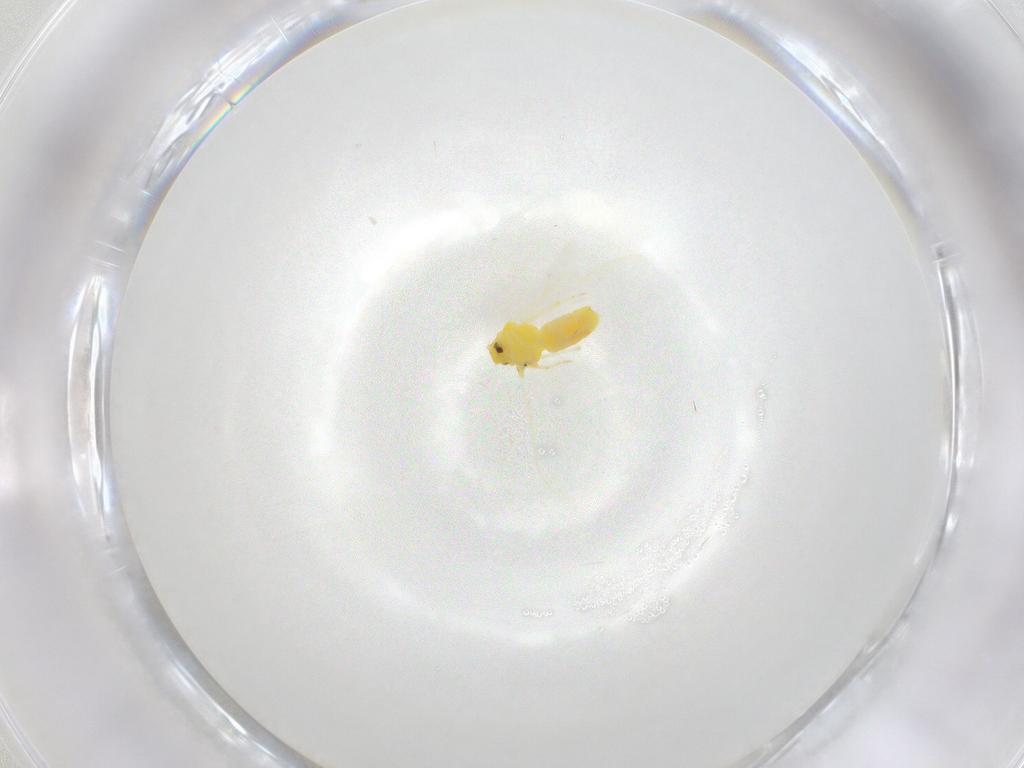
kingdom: Animalia
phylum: Arthropoda
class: Insecta
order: Hemiptera
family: Aleyrodidae
